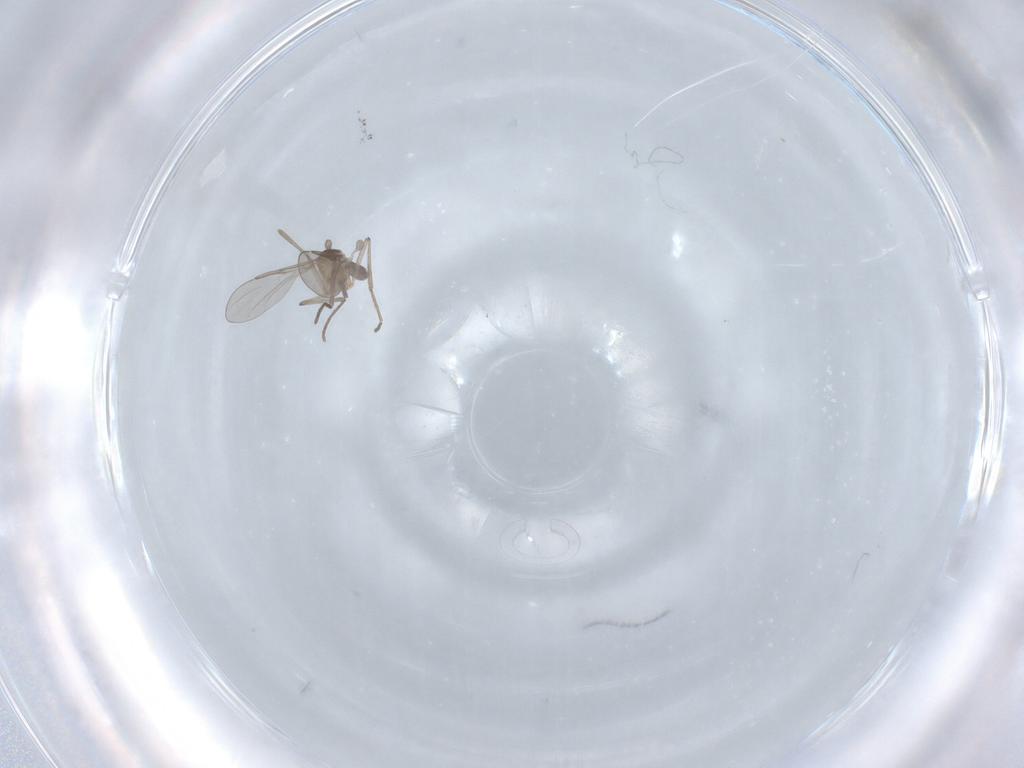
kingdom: Animalia
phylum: Arthropoda
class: Insecta
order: Diptera
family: Cecidomyiidae
